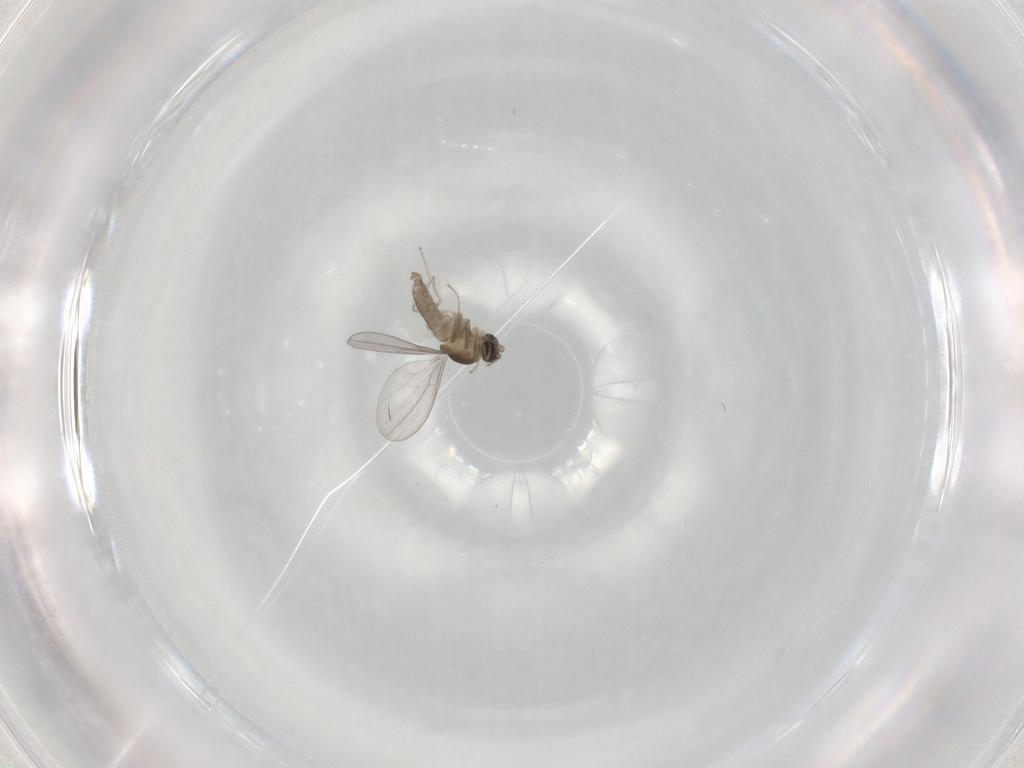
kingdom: Animalia
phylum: Arthropoda
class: Insecta
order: Diptera
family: Cecidomyiidae
